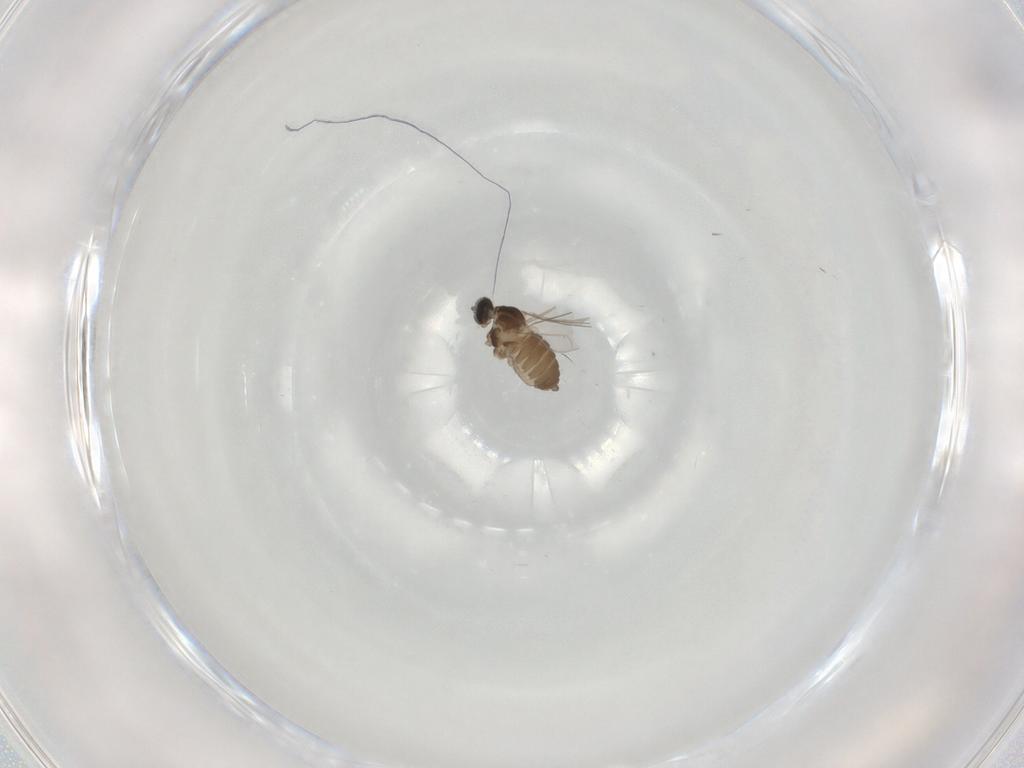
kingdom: Animalia
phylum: Arthropoda
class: Insecta
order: Diptera
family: Cecidomyiidae
